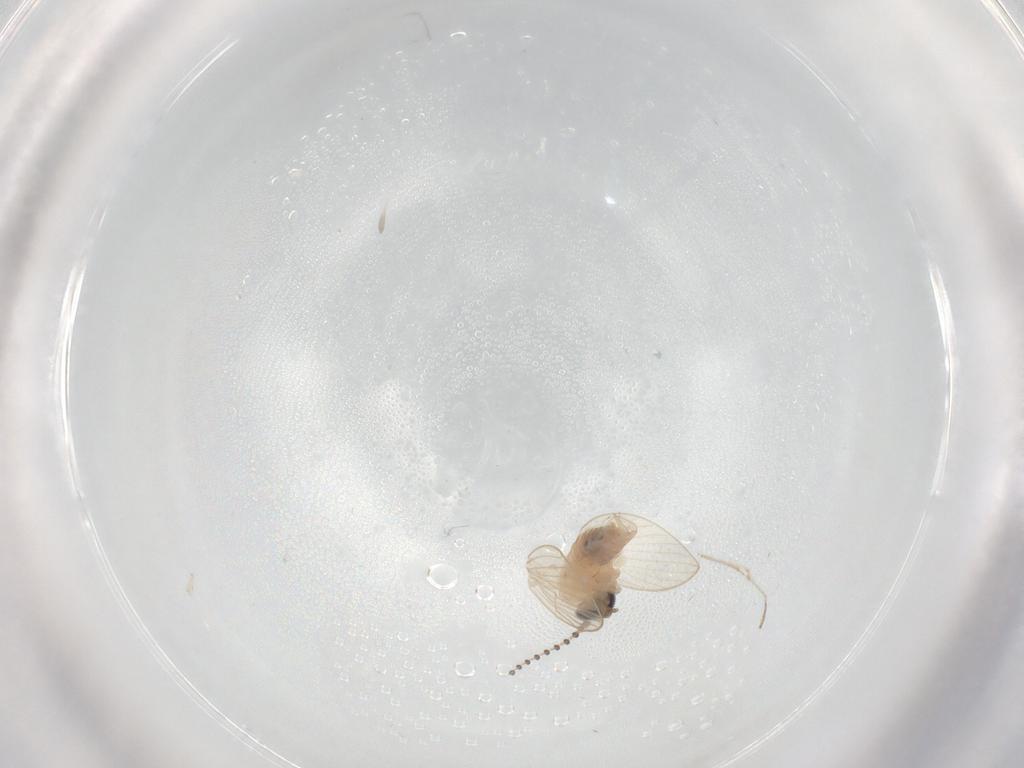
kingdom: Animalia
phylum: Arthropoda
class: Insecta
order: Diptera
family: Psychodidae
